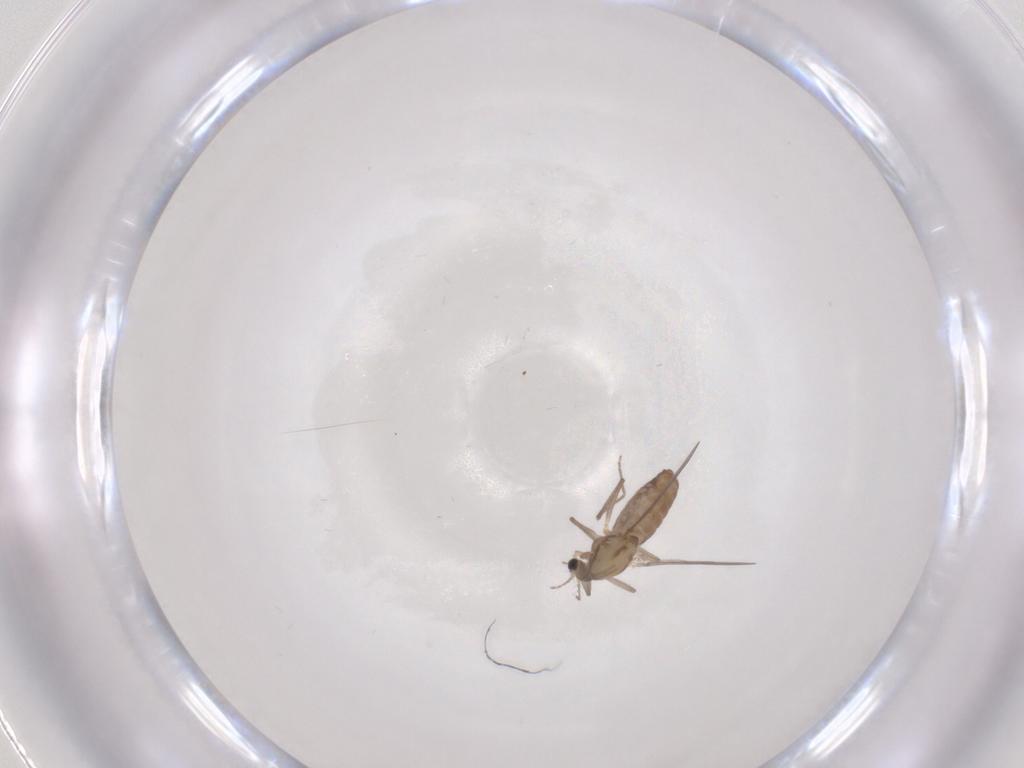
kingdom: Animalia
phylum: Arthropoda
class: Insecta
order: Diptera
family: Chironomidae
